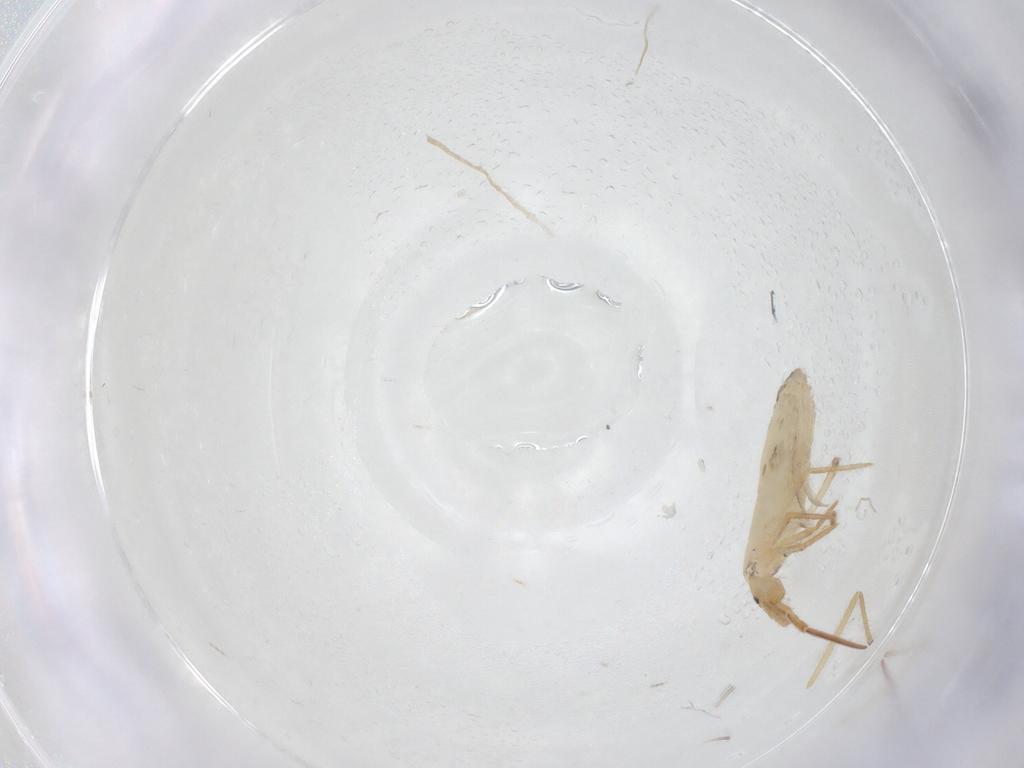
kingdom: Animalia
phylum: Arthropoda
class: Collembola
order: Entomobryomorpha
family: Entomobryidae
